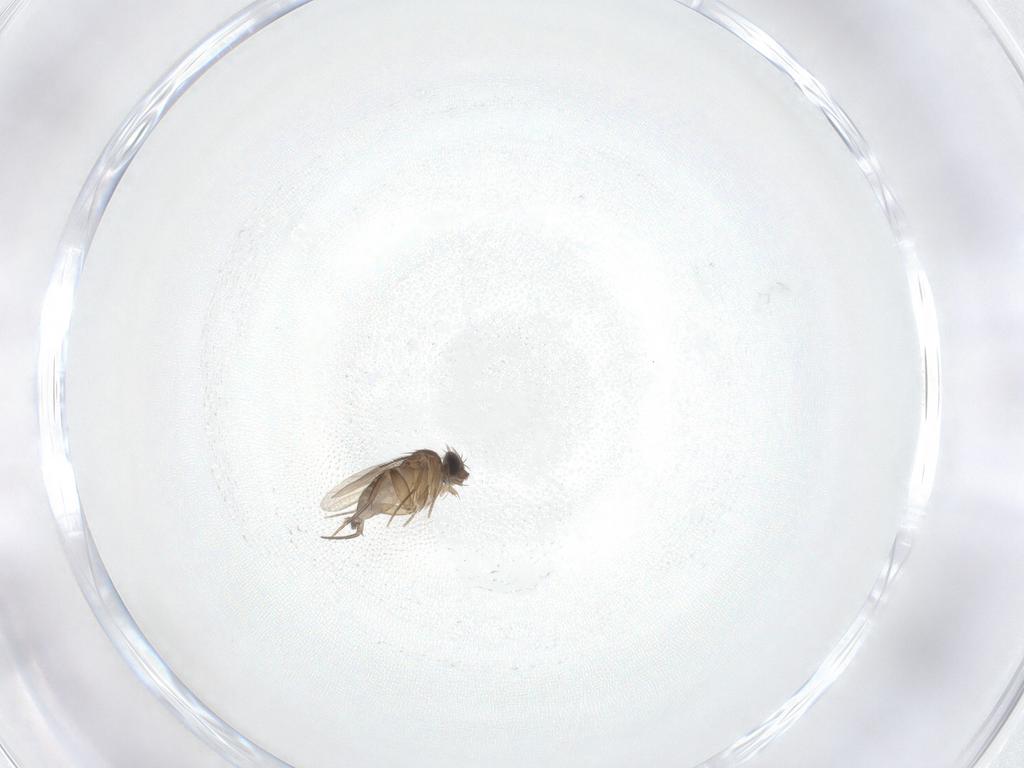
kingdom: Animalia
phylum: Arthropoda
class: Insecta
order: Diptera
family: Phoridae
